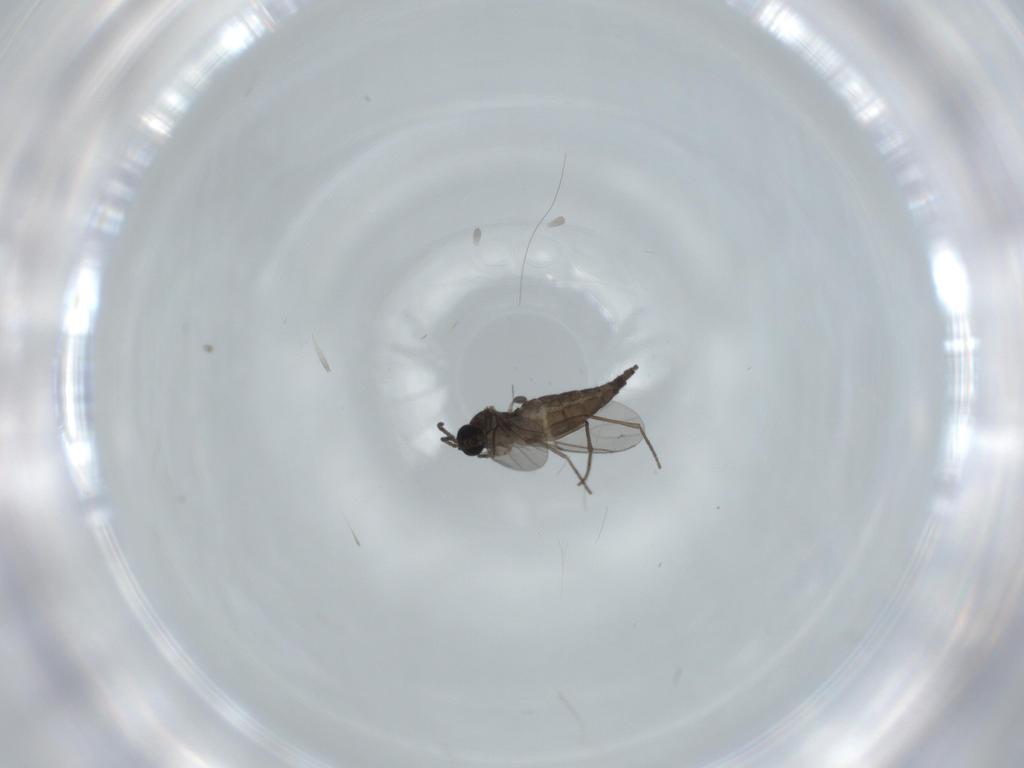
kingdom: Animalia
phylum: Arthropoda
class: Insecta
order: Diptera
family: Sciaridae
